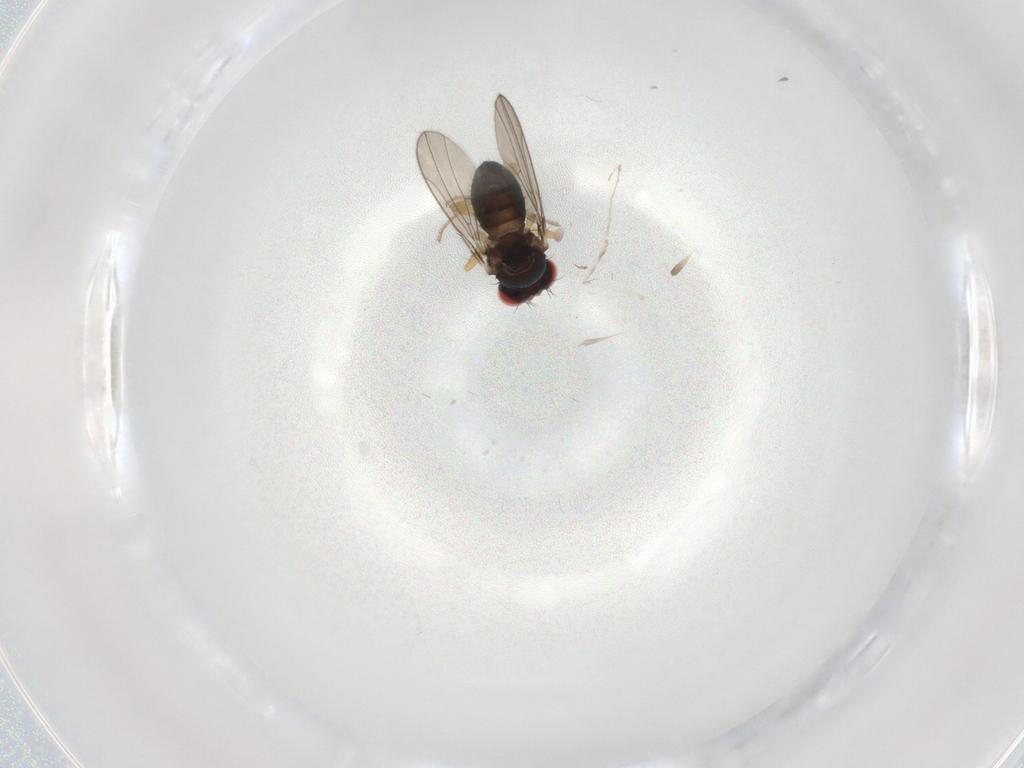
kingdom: Animalia
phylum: Arthropoda
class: Insecta
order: Diptera
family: Drosophilidae
